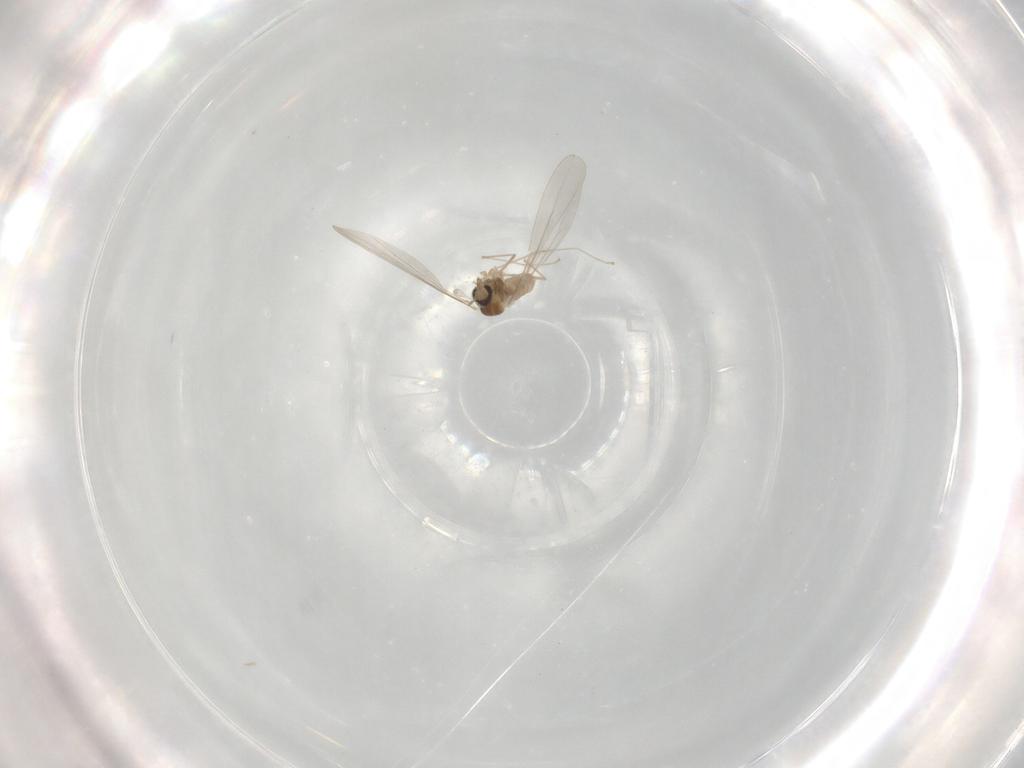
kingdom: Animalia
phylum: Arthropoda
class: Insecta
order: Diptera
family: Cecidomyiidae
